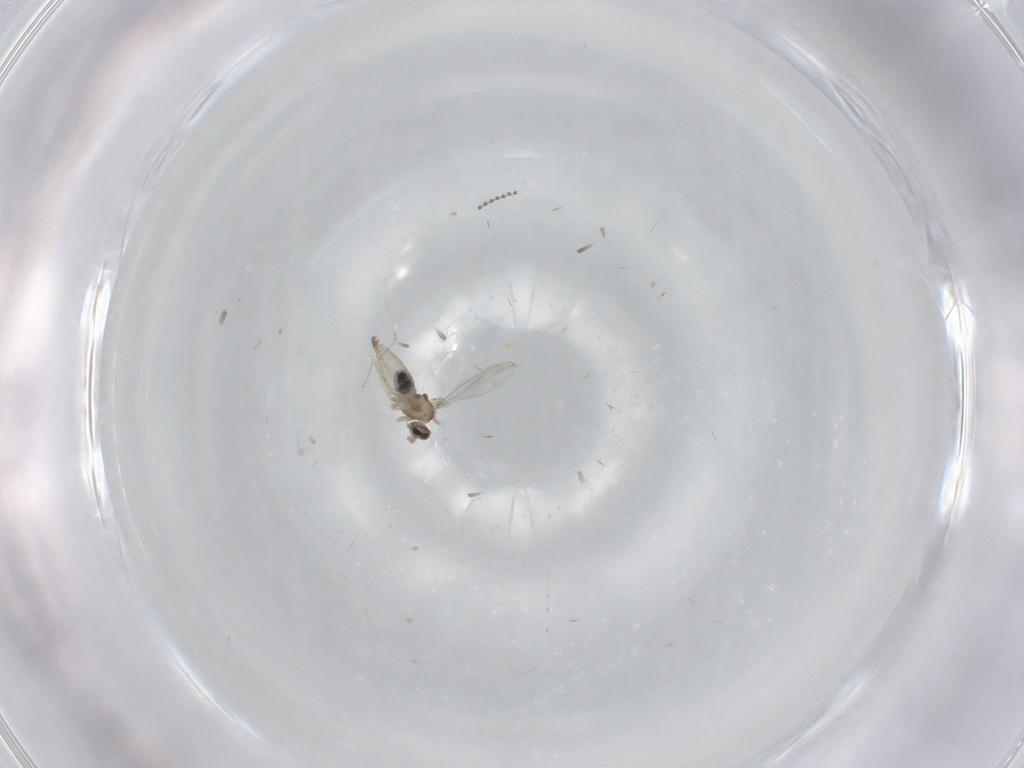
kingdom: Animalia
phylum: Arthropoda
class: Insecta
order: Diptera
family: Cecidomyiidae
